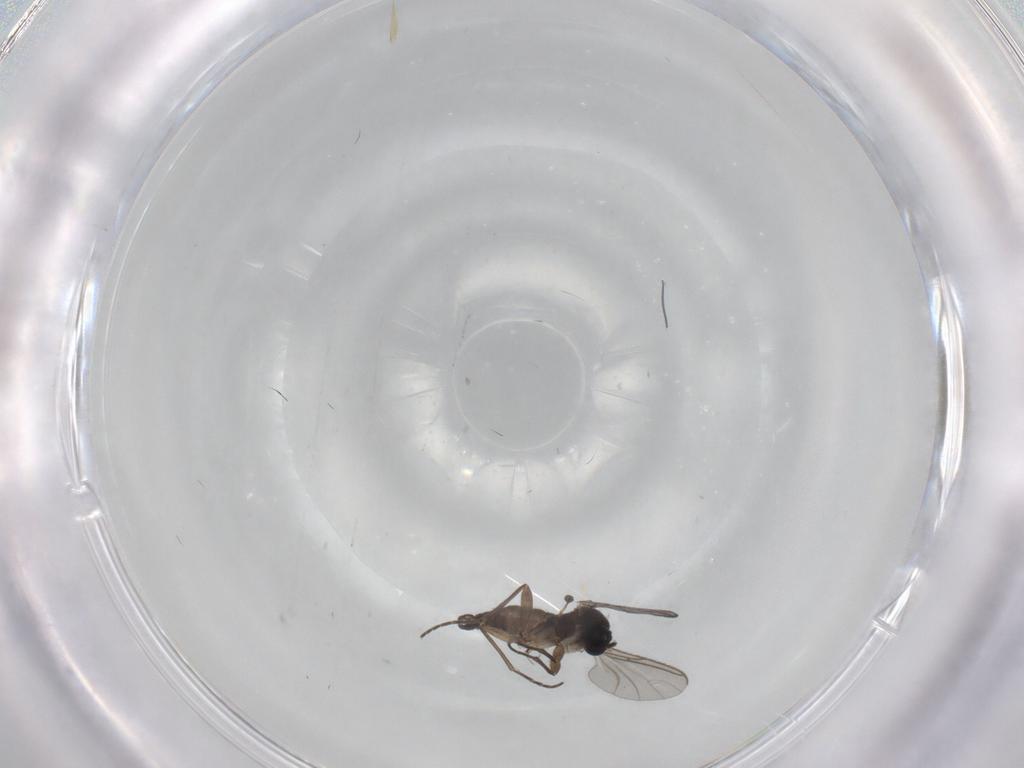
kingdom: Animalia
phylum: Arthropoda
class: Insecta
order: Diptera
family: Sciaridae
